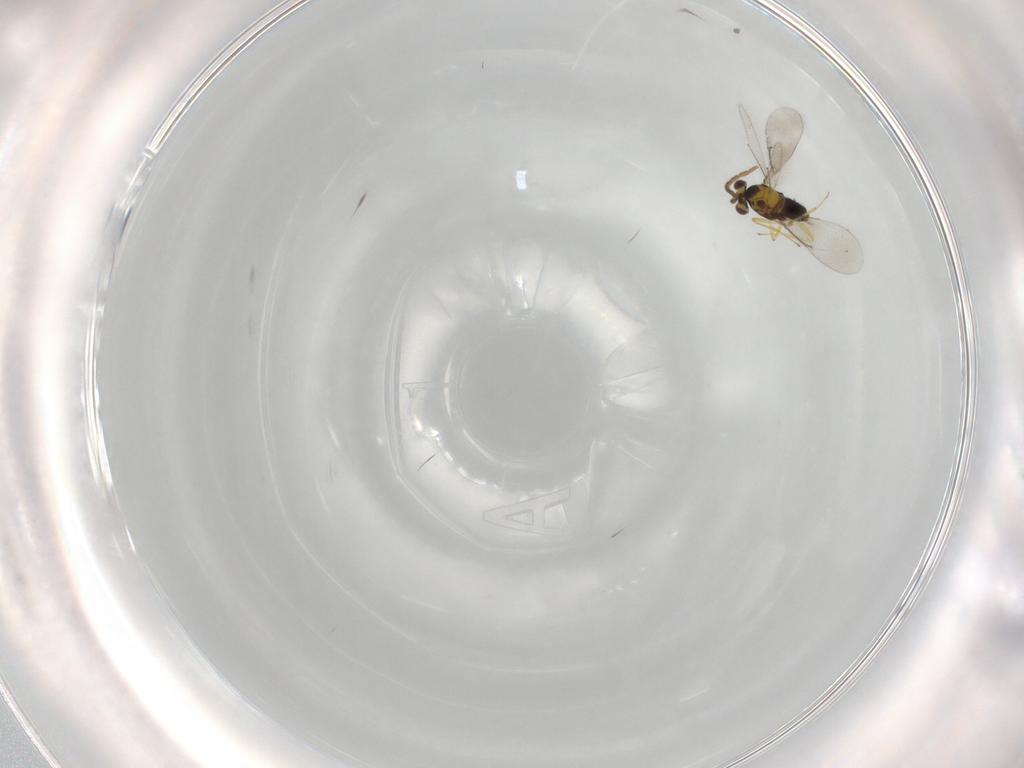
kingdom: Animalia
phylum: Arthropoda
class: Insecta
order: Hymenoptera
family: Aphelinidae
